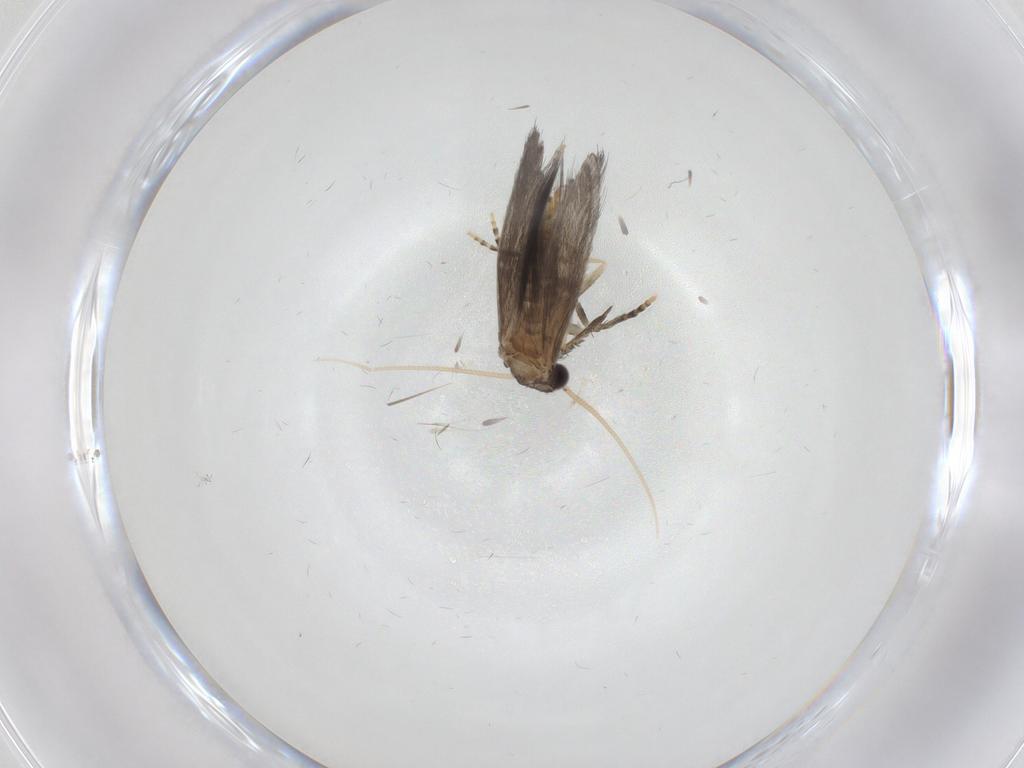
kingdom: Animalia
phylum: Arthropoda
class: Insecta
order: Trichoptera
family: Hydroptilidae
